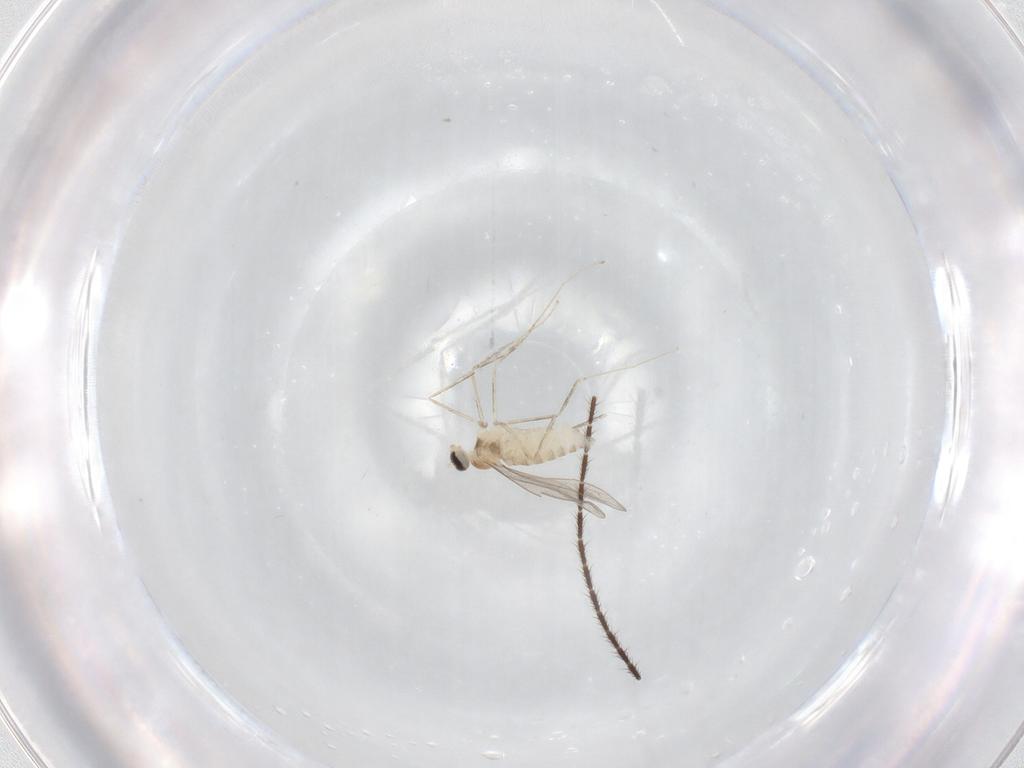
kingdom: Animalia
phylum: Arthropoda
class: Insecta
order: Diptera
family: Cecidomyiidae
